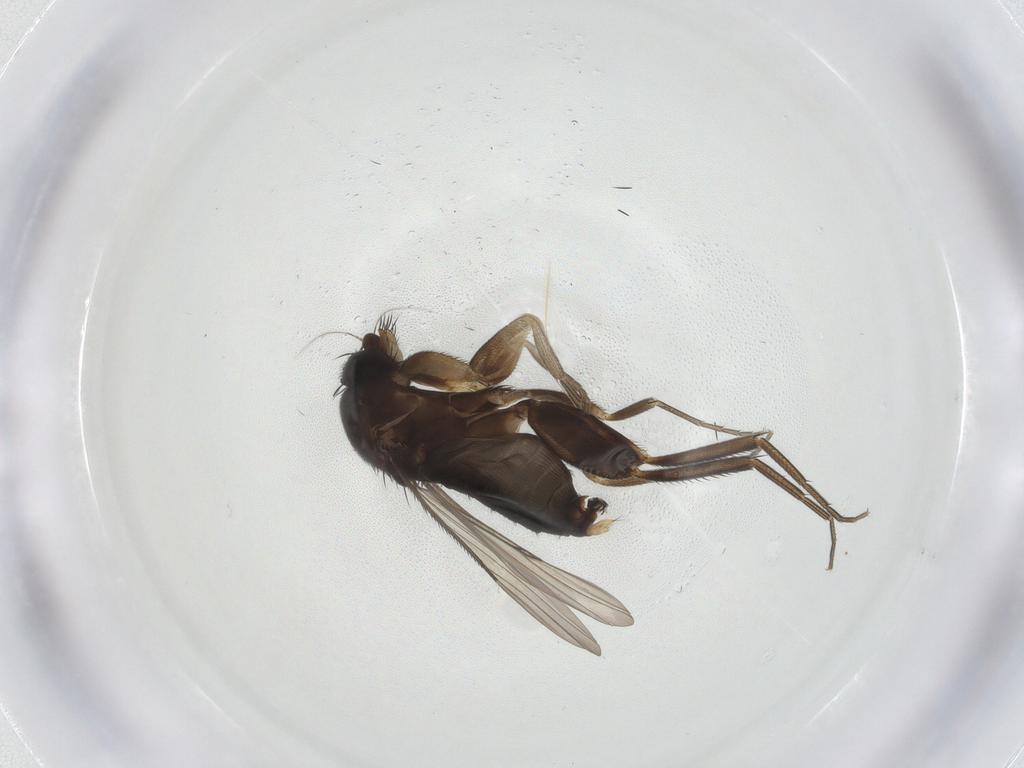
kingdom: Animalia
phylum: Arthropoda
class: Insecta
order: Diptera
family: Phoridae
